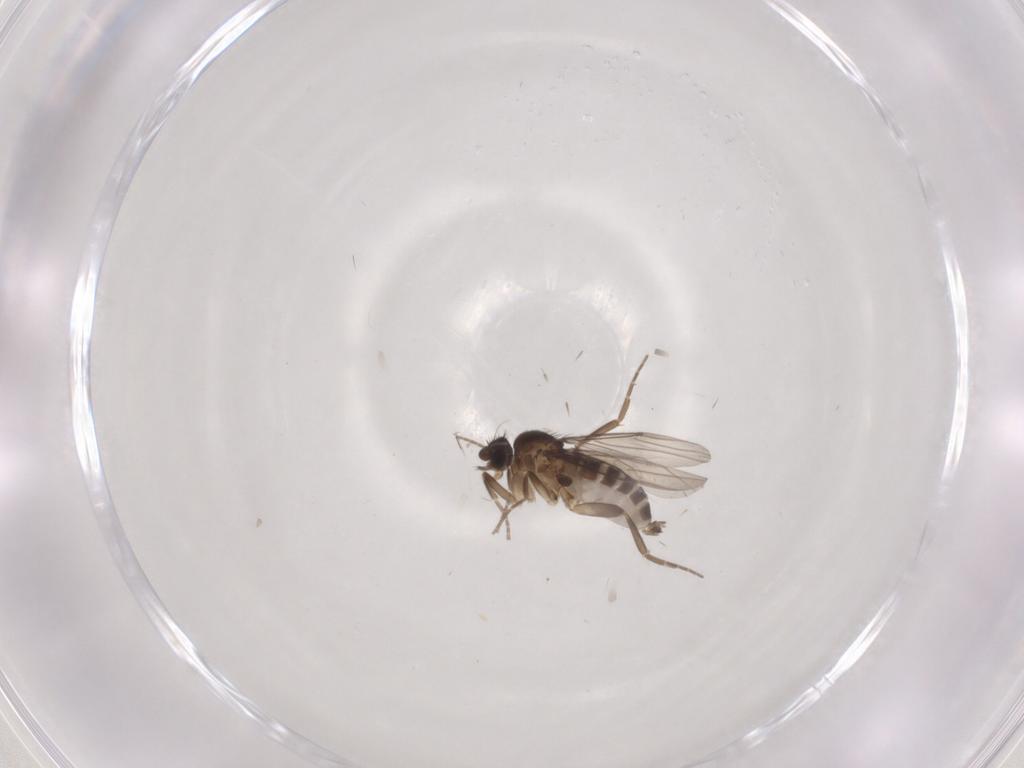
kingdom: Animalia
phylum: Arthropoda
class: Insecta
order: Diptera
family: Phoridae
